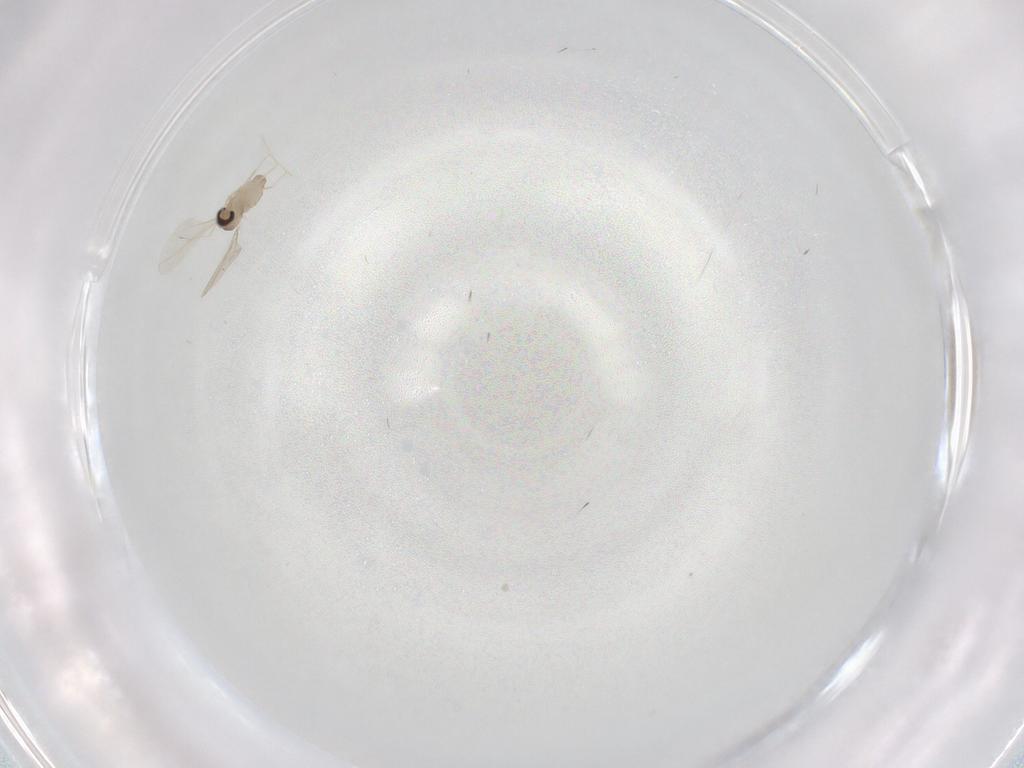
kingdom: Animalia
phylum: Arthropoda
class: Insecta
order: Diptera
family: Cecidomyiidae
